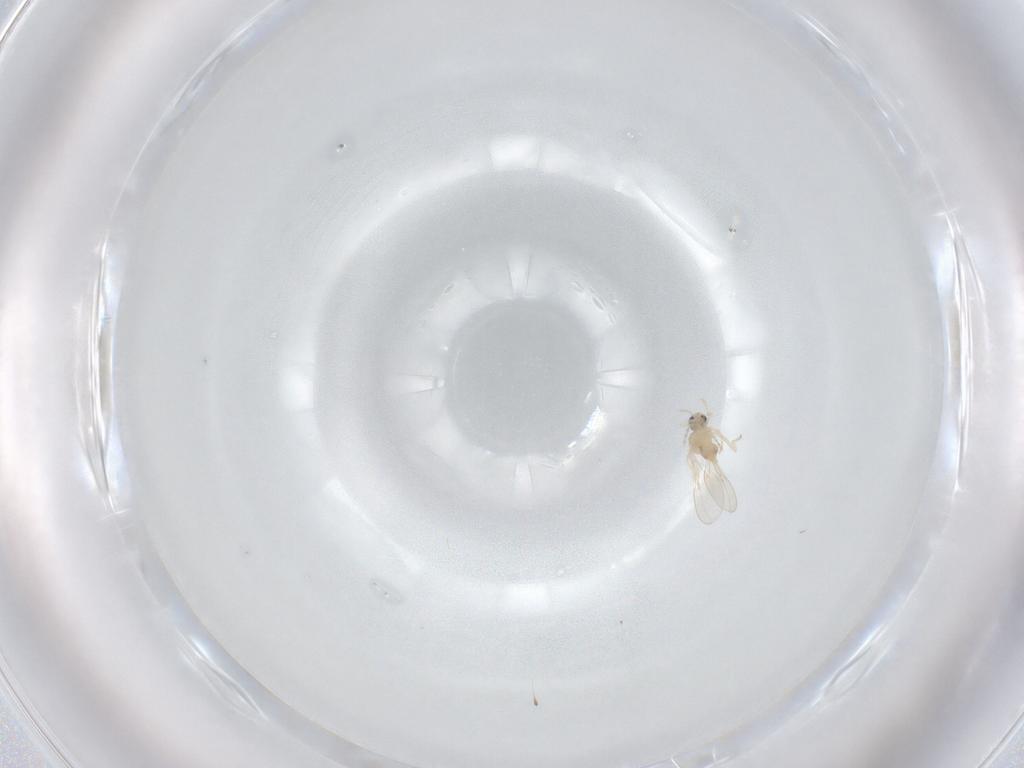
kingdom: Animalia
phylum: Arthropoda
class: Insecta
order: Diptera
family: Cecidomyiidae
